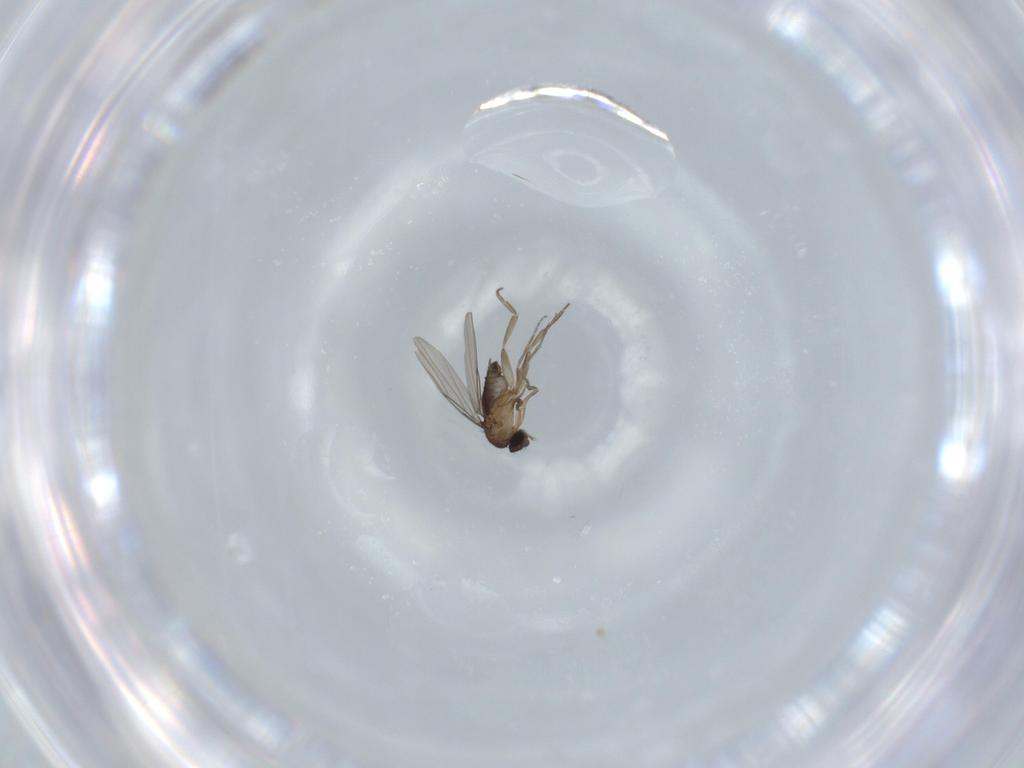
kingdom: Animalia
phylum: Arthropoda
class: Insecta
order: Diptera
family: Phoridae
